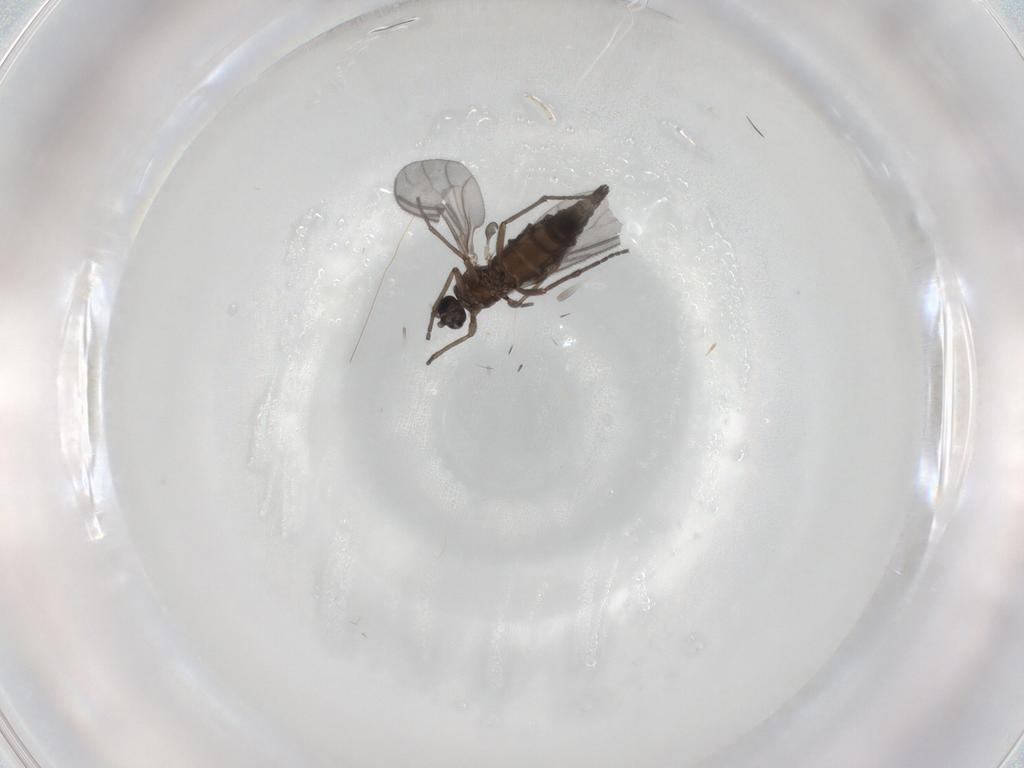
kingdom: Animalia
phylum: Arthropoda
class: Insecta
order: Diptera
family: Sciaridae
